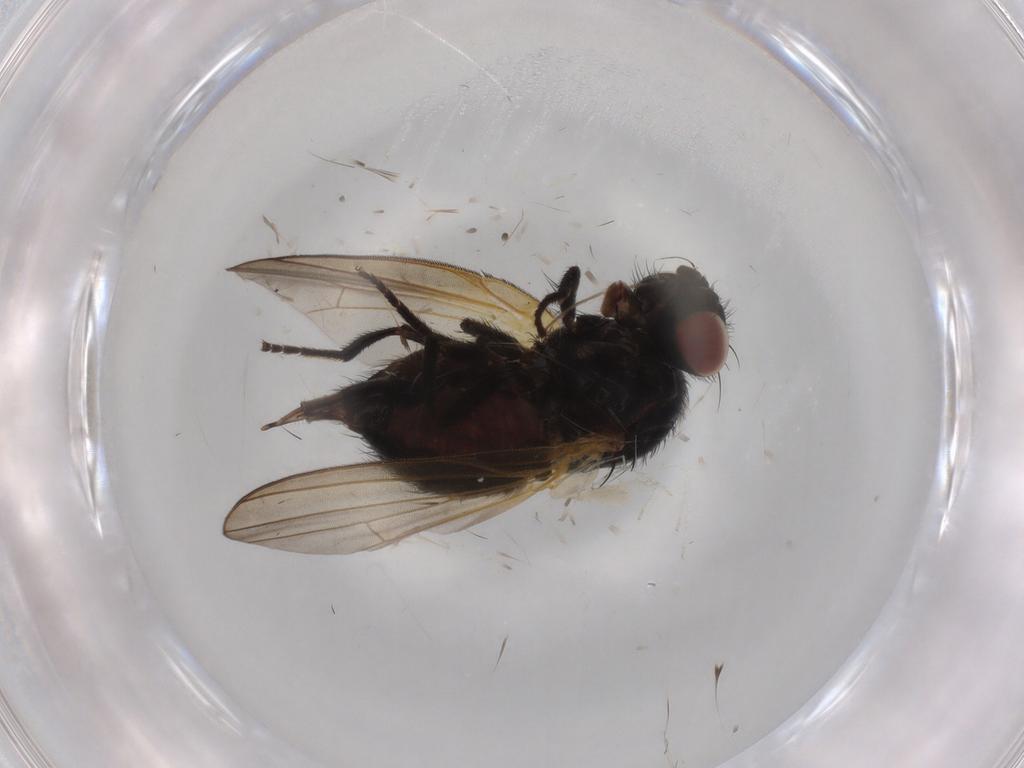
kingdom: Animalia
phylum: Arthropoda
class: Insecta
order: Diptera
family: Lonchaeidae
